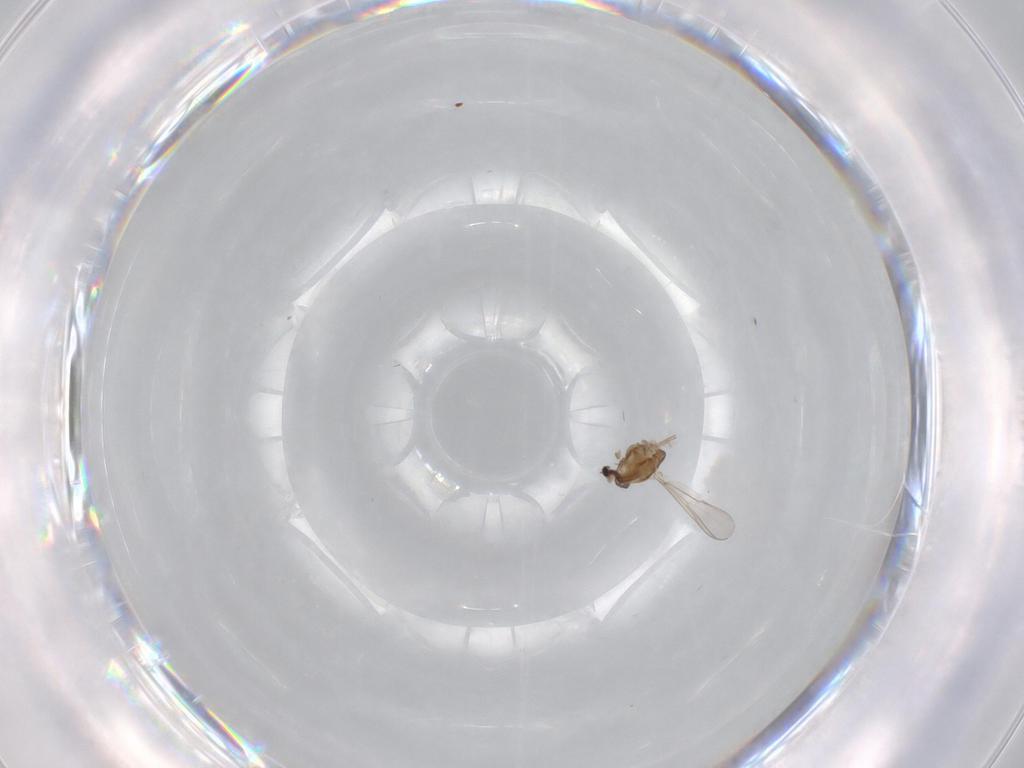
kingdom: Animalia
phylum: Arthropoda
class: Insecta
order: Diptera
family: Chironomidae
